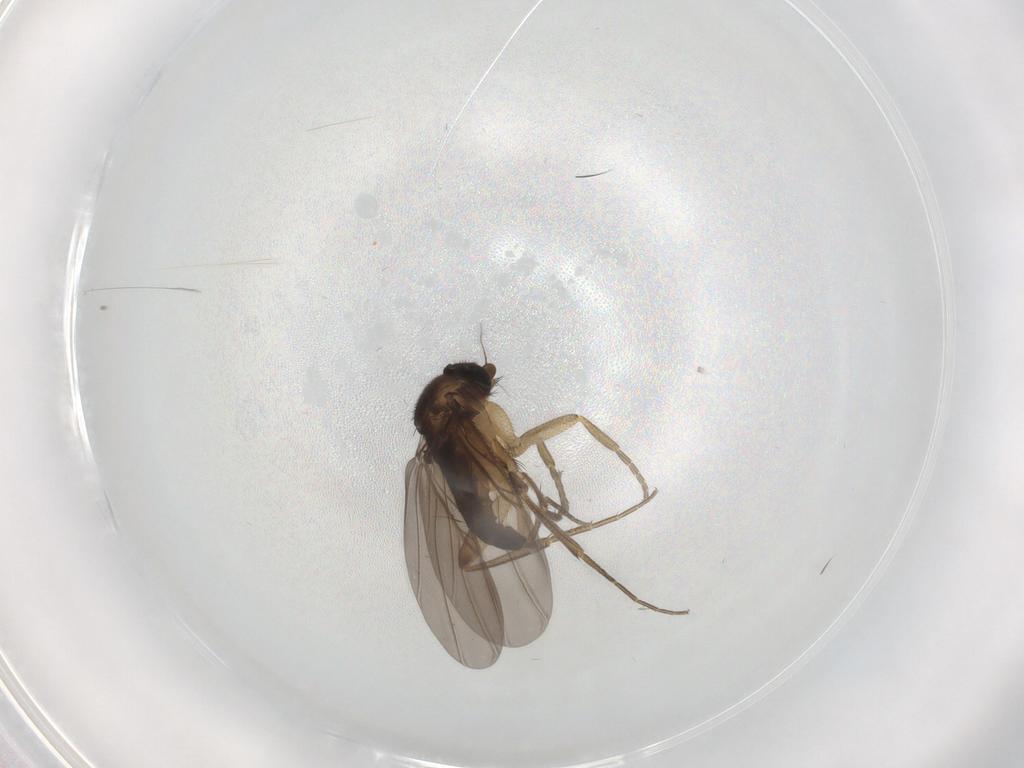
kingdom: Animalia
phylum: Arthropoda
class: Insecta
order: Diptera
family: Phoridae
